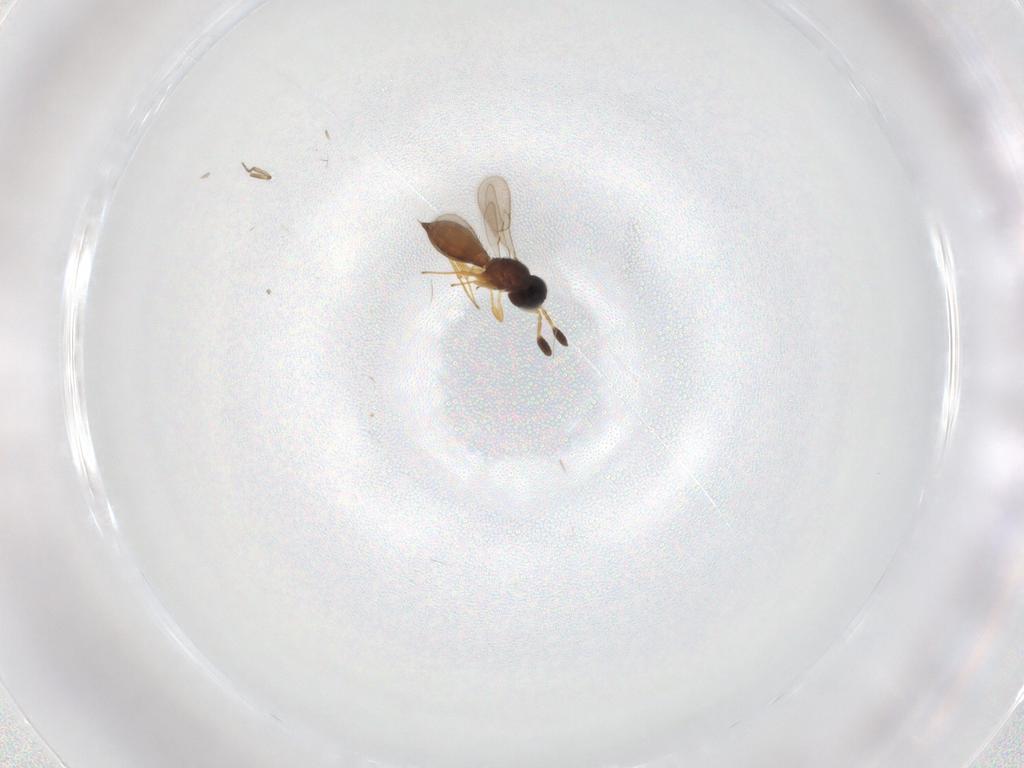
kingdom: Animalia
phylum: Arthropoda
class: Insecta
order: Hymenoptera
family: Scelionidae
